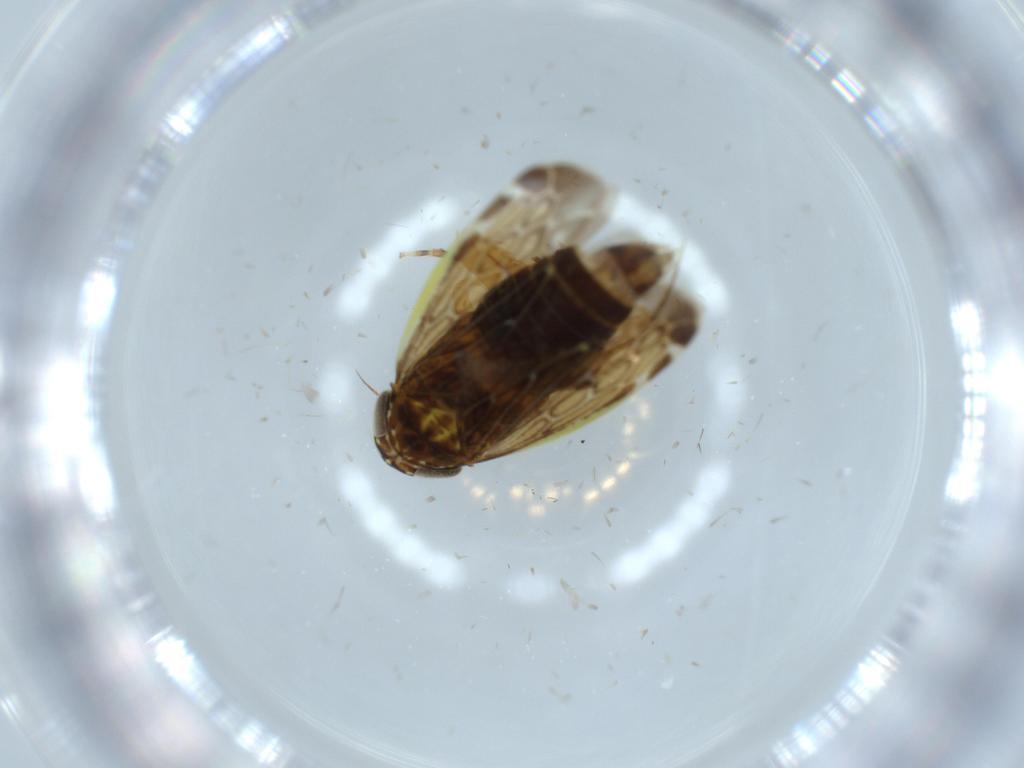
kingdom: Animalia
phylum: Arthropoda
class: Insecta
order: Hemiptera
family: Cicadellidae
